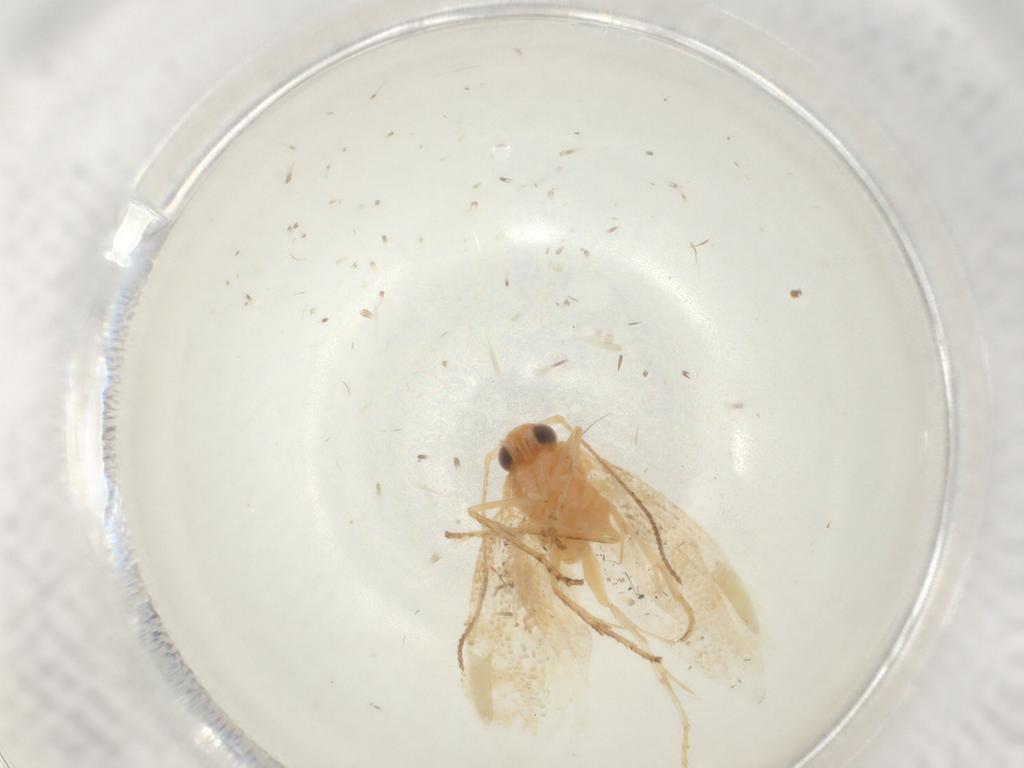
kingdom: Animalia
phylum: Arthropoda
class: Insecta
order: Lepidoptera
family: Argyresthiidae
